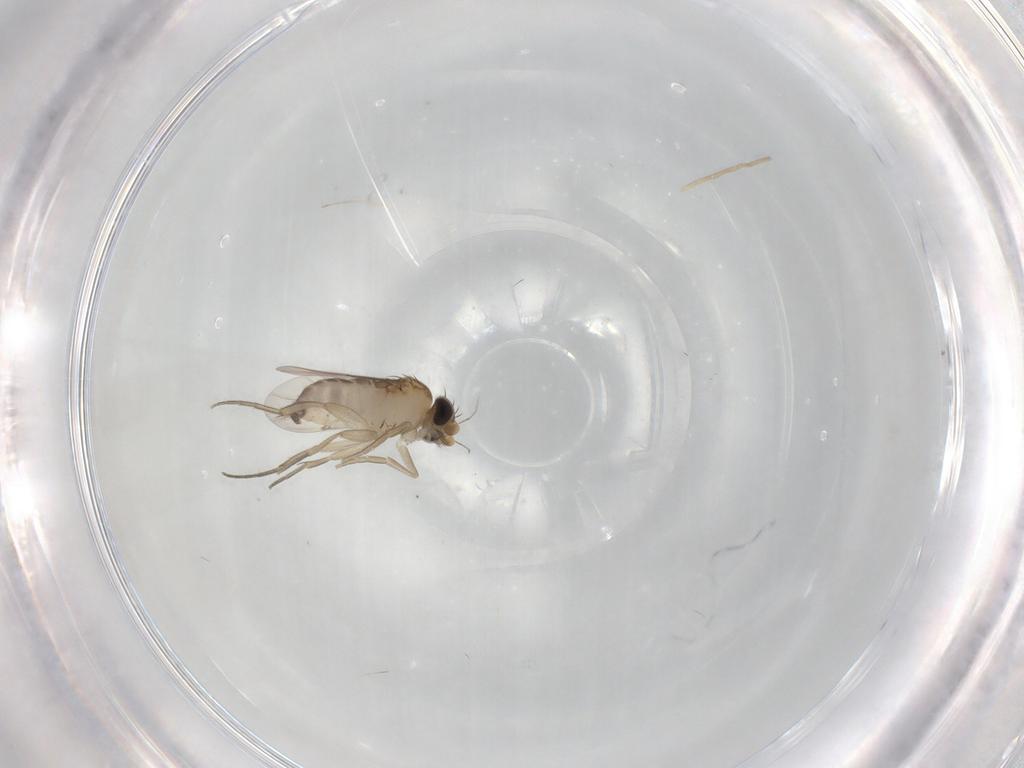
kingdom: Animalia
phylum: Arthropoda
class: Insecta
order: Diptera
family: Phoridae
